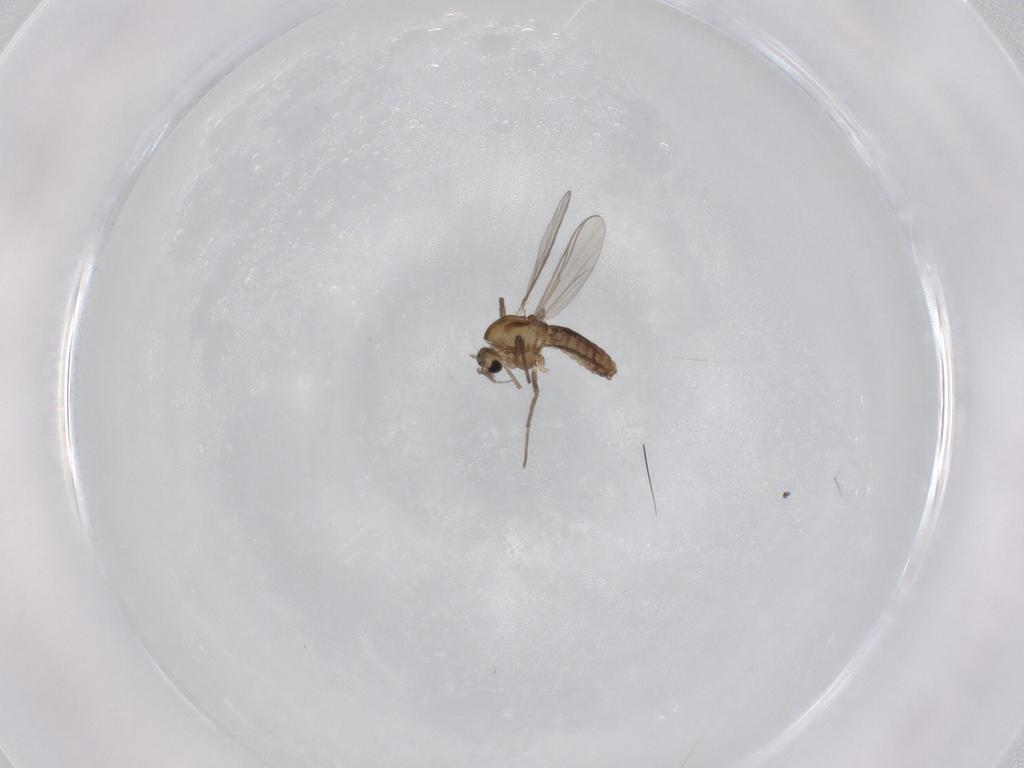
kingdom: Animalia
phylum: Arthropoda
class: Insecta
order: Diptera
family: Chironomidae
